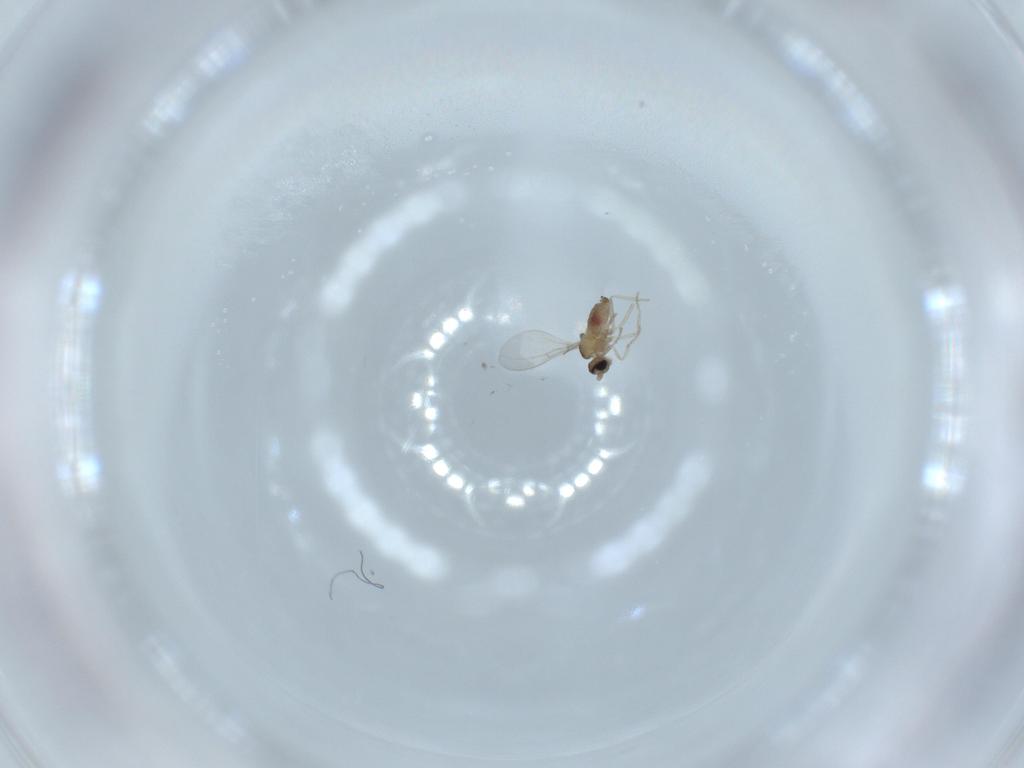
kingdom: Animalia
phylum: Arthropoda
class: Insecta
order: Diptera
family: Cecidomyiidae
